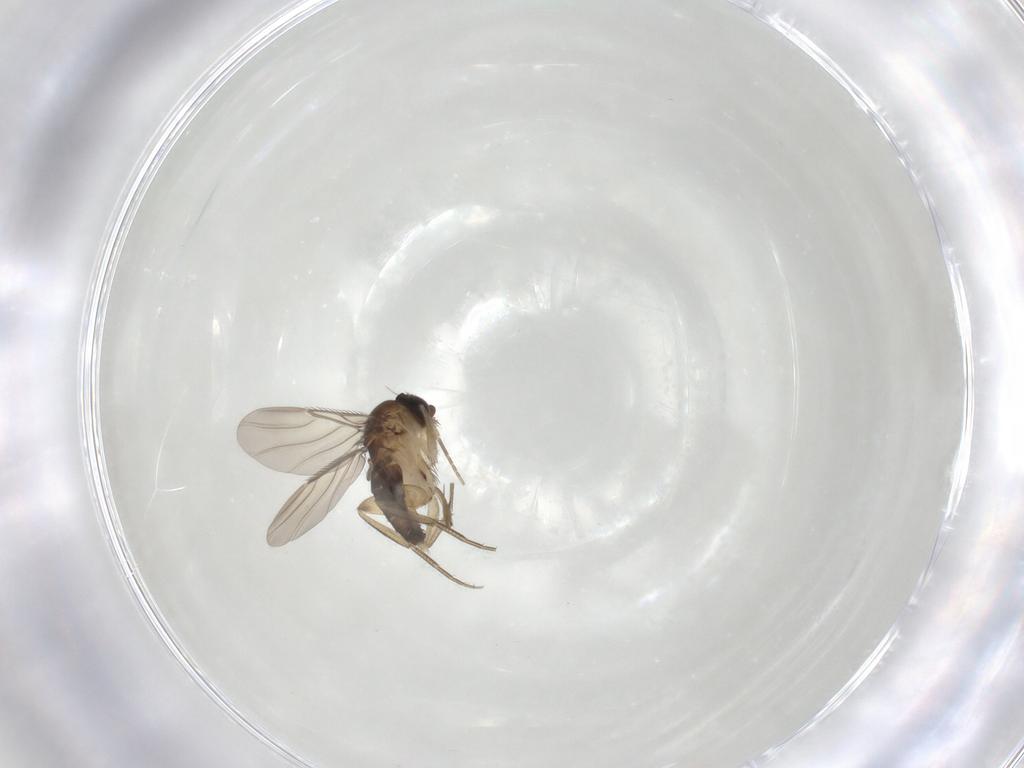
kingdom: Animalia
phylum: Arthropoda
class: Insecta
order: Diptera
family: Phoridae
